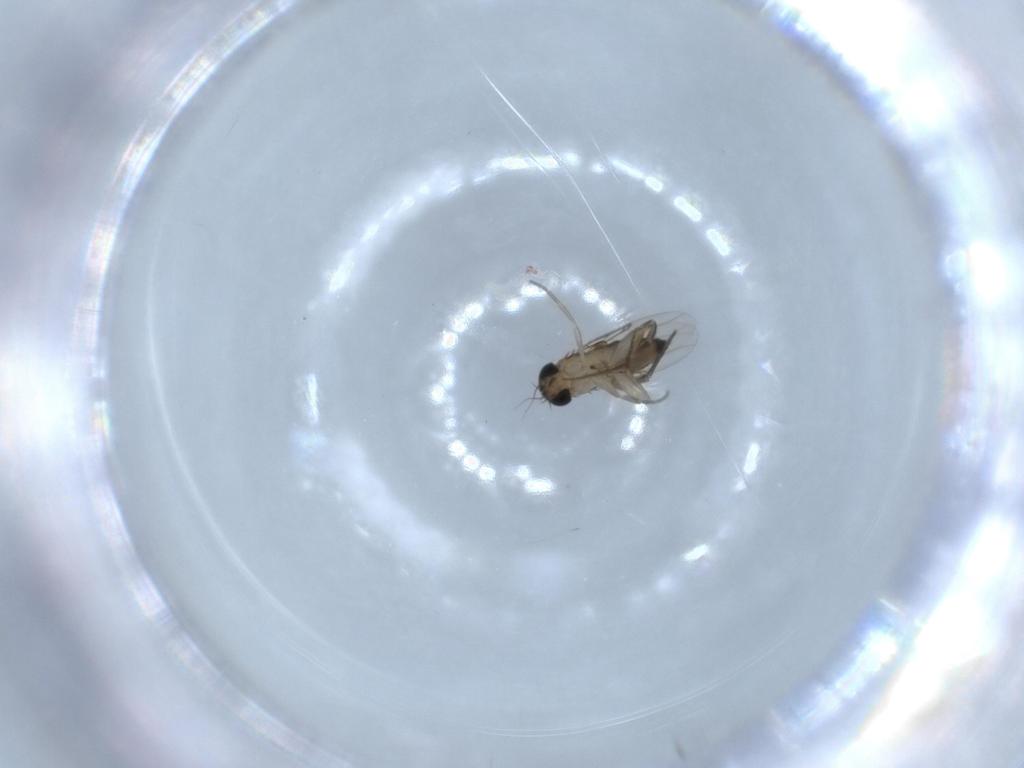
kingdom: Animalia
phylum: Arthropoda
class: Insecta
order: Diptera
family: Phoridae
